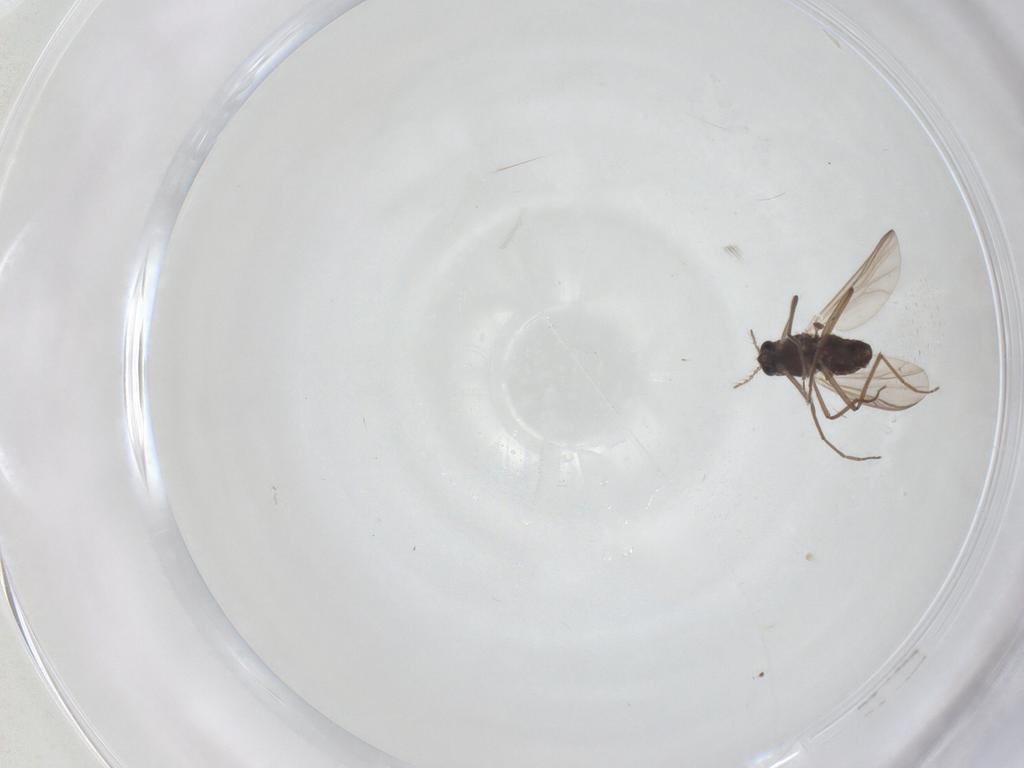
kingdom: Animalia
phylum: Arthropoda
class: Insecta
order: Diptera
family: Chironomidae
